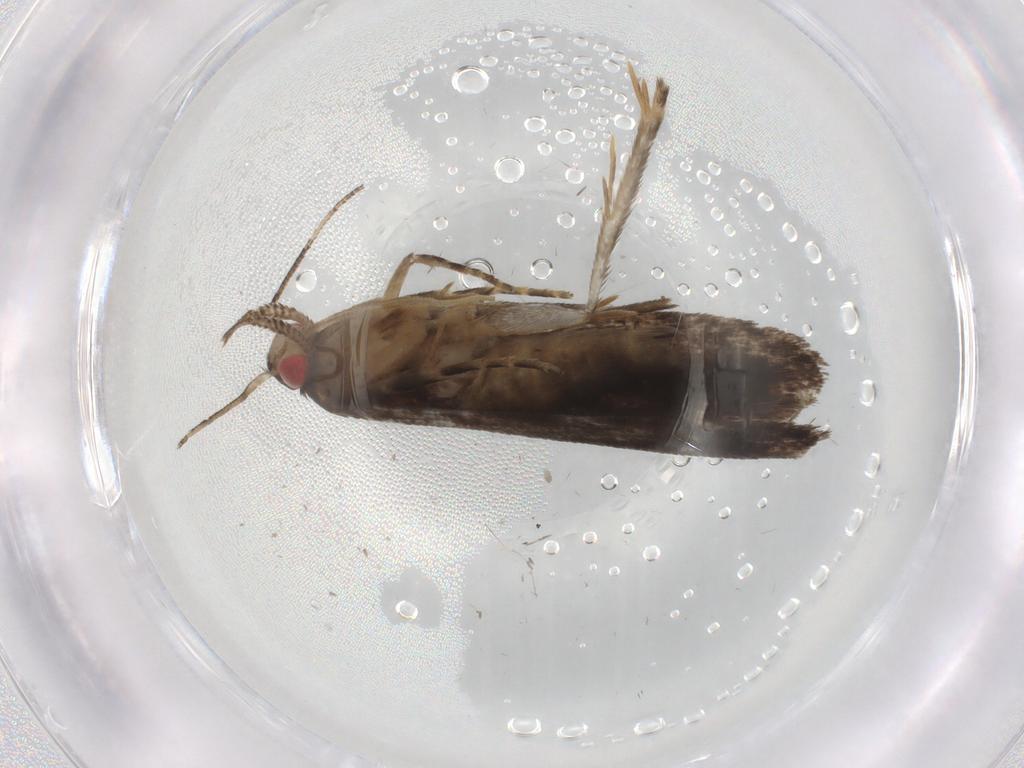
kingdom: Animalia
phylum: Arthropoda
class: Insecta
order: Lepidoptera
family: Gelechiidae
